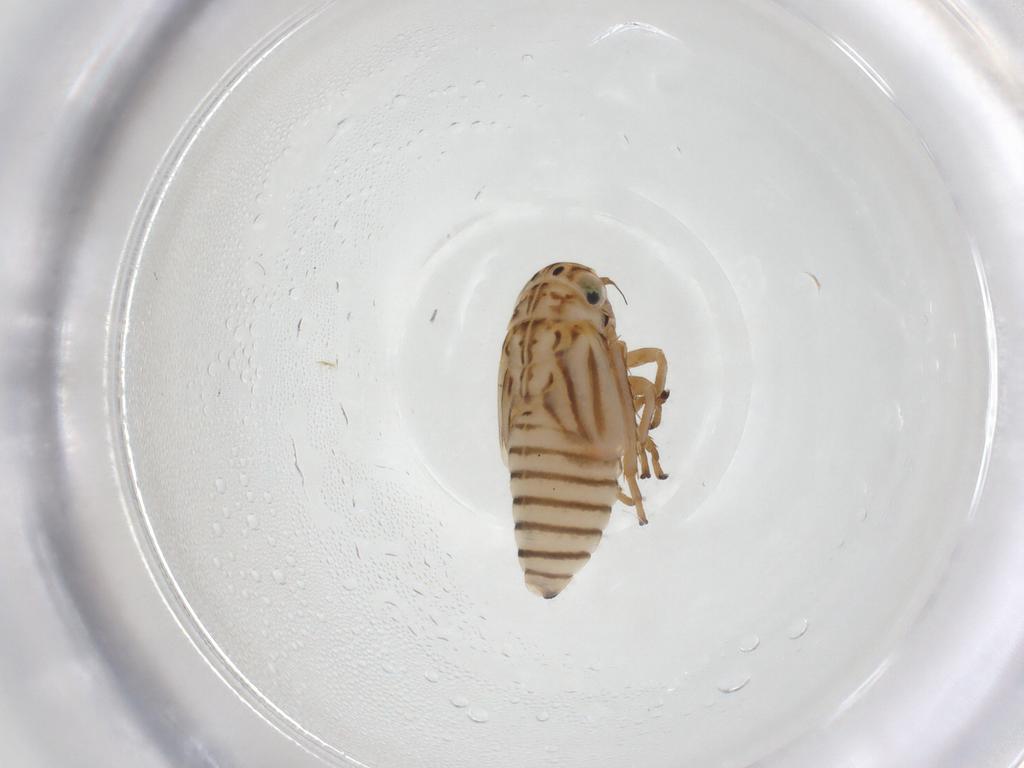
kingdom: Animalia
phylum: Arthropoda
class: Insecta
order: Hemiptera
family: Cicadellidae
